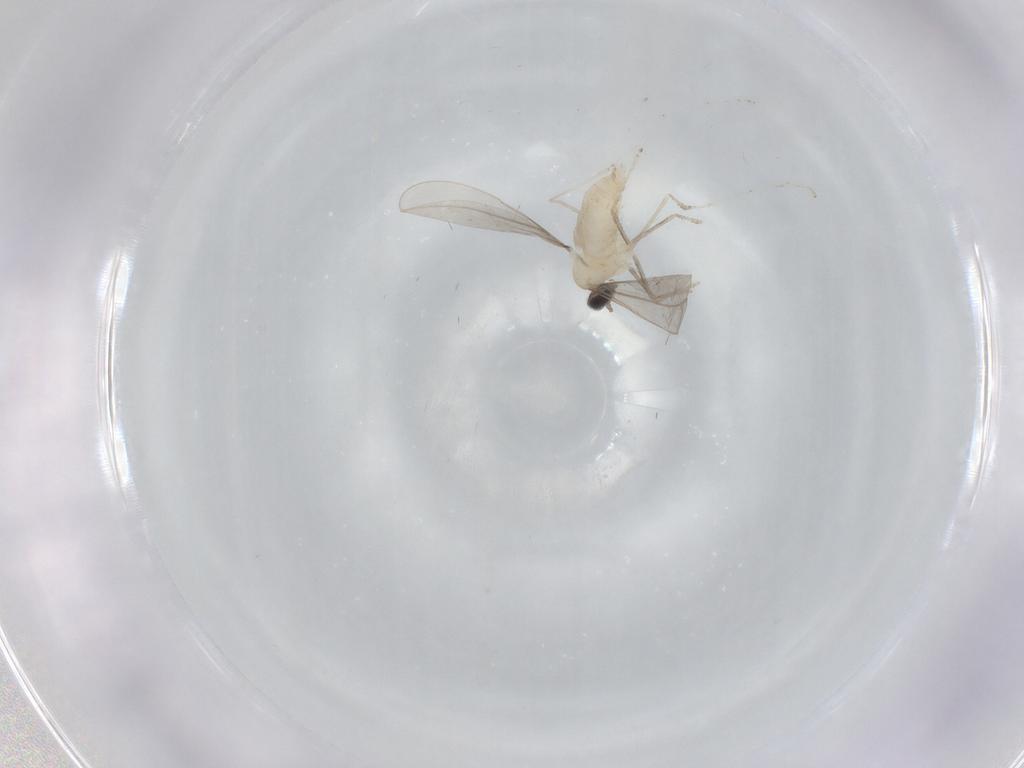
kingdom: Animalia
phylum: Arthropoda
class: Insecta
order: Diptera
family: Cecidomyiidae
